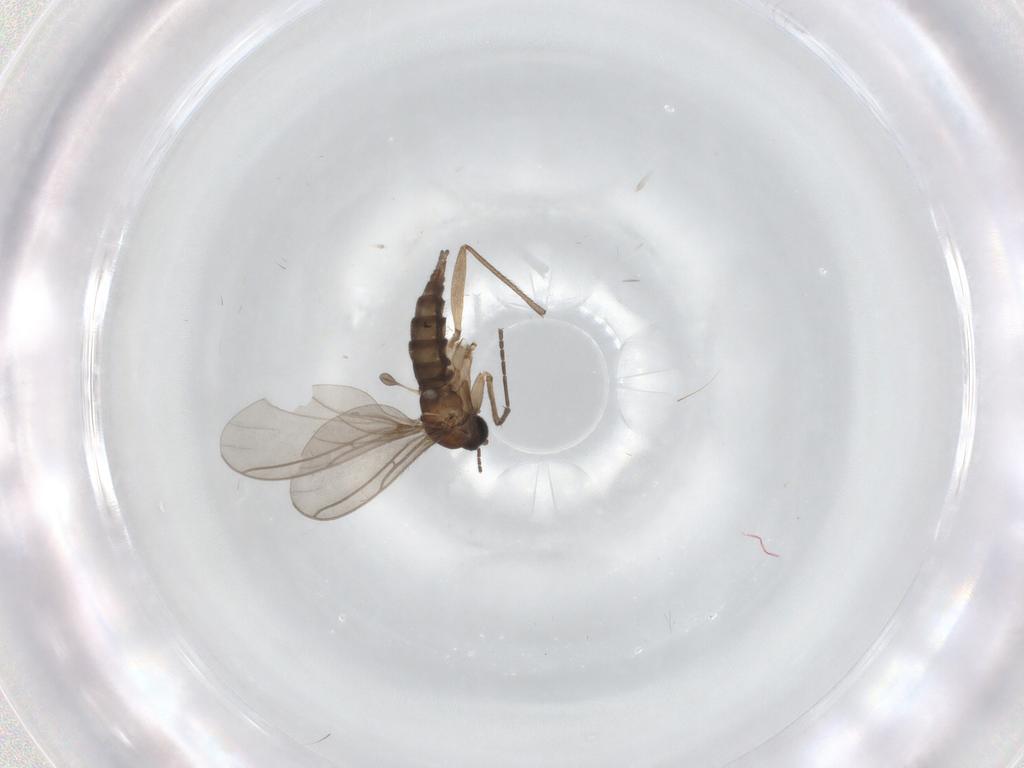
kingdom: Animalia
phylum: Arthropoda
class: Insecta
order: Diptera
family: Sciaridae
